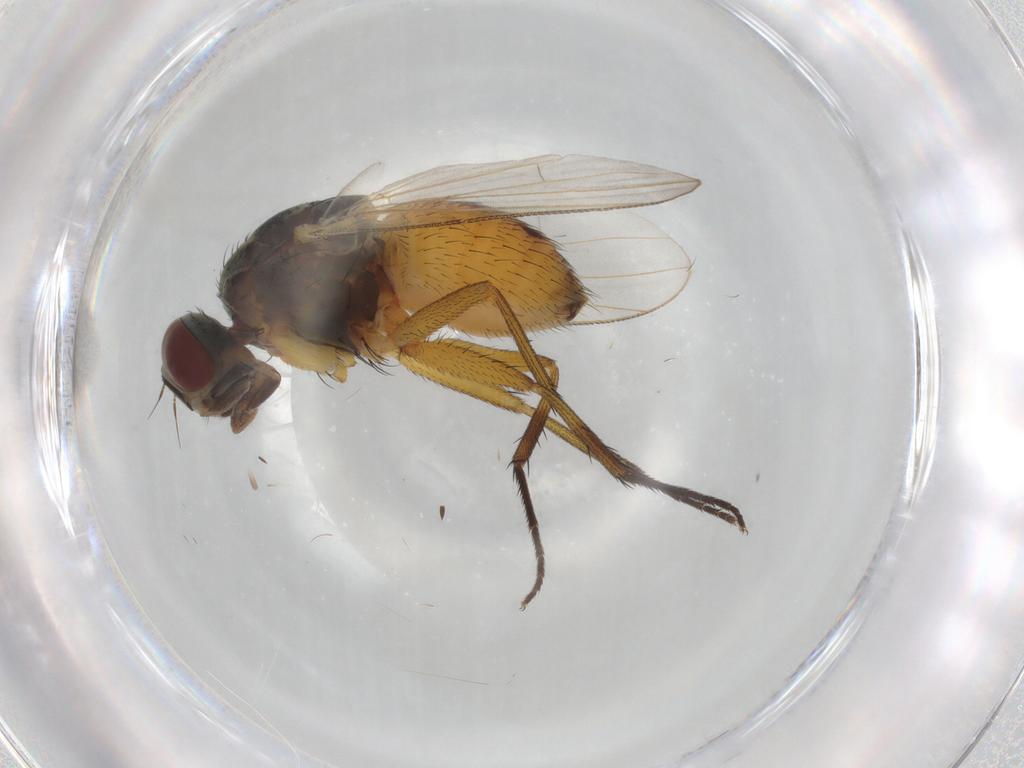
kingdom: Animalia
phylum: Arthropoda
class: Insecta
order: Diptera
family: Muscidae
